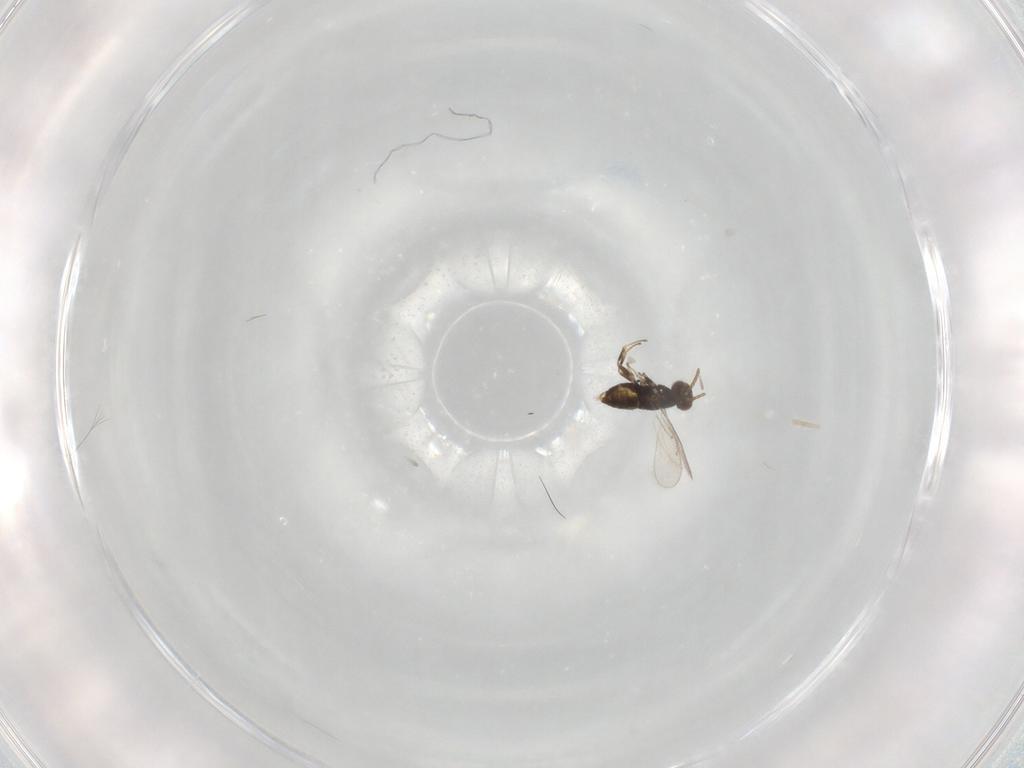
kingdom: Animalia
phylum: Arthropoda
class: Insecta
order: Hymenoptera
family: Aphelinidae
